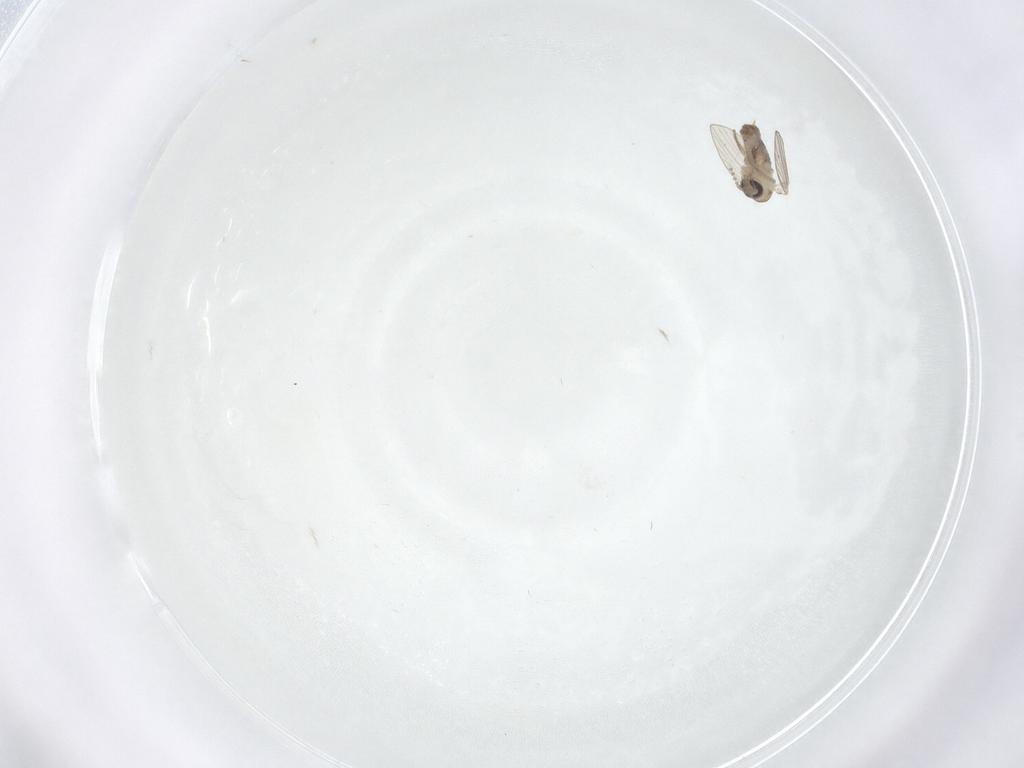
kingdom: Animalia
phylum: Arthropoda
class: Insecta
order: Diptera
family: Psychodidae
